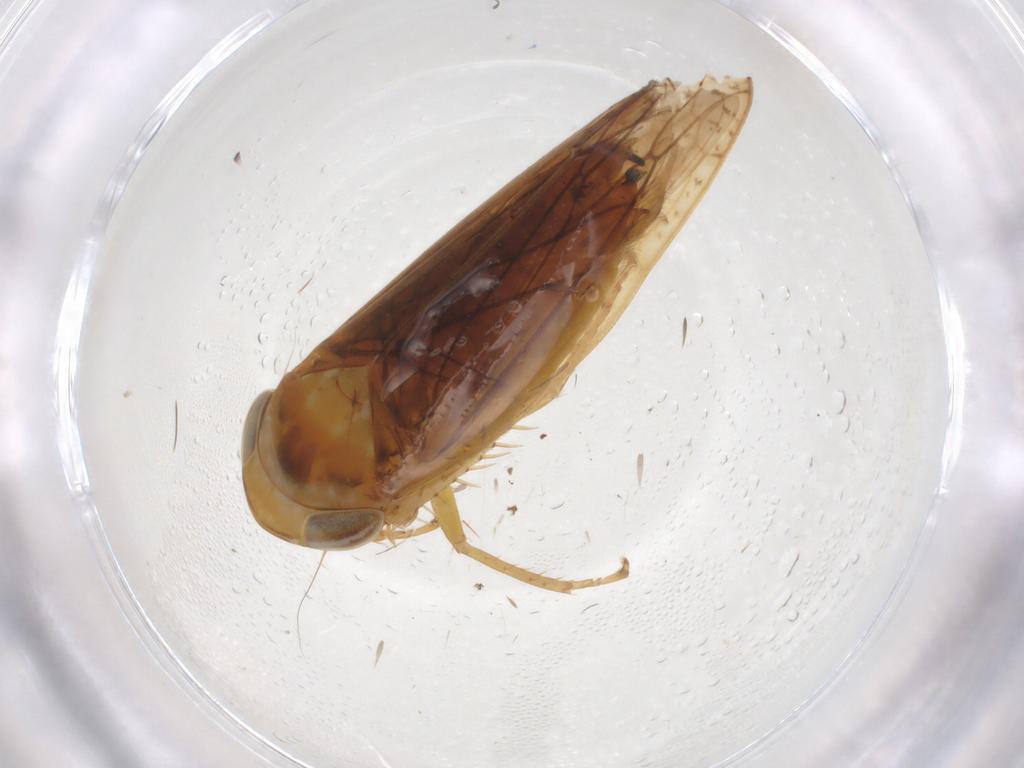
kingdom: Animalia
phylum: Arthropoda
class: Insecta
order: Hemiptera
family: Cicadellidae
